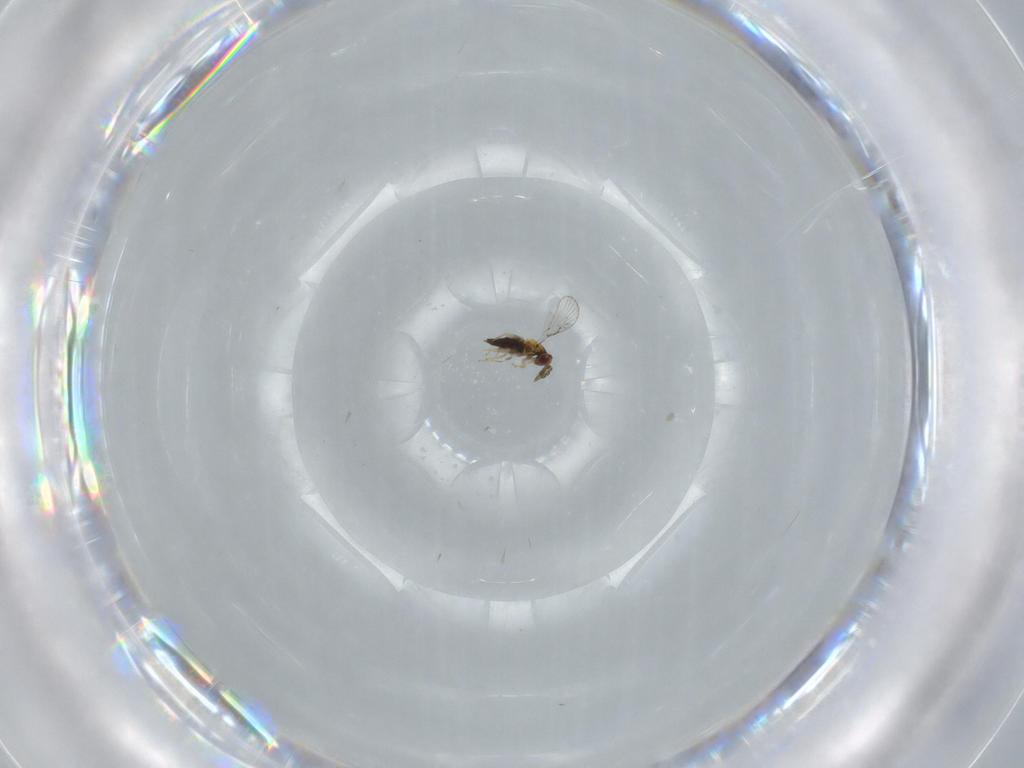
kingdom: Animalia
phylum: Arthropoda
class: Insecta
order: Hymenoptera
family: Trichogrammatidae
